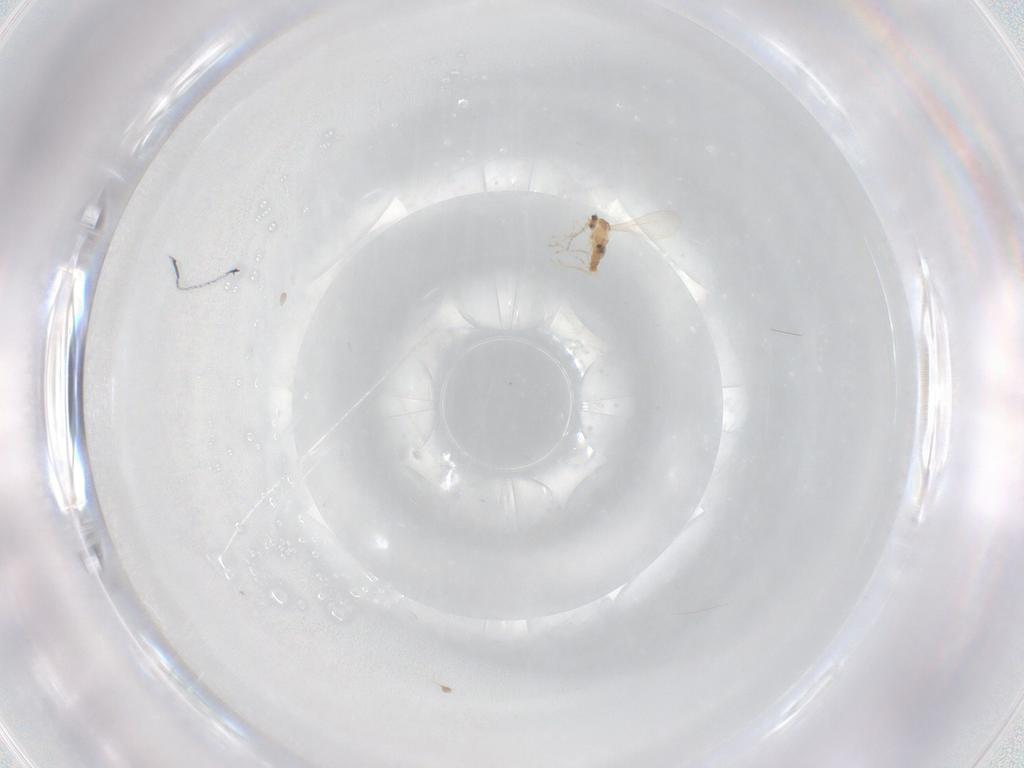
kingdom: Animalia
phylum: Arthropoda
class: Insecta
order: Diptera
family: Cecidomyiidae
